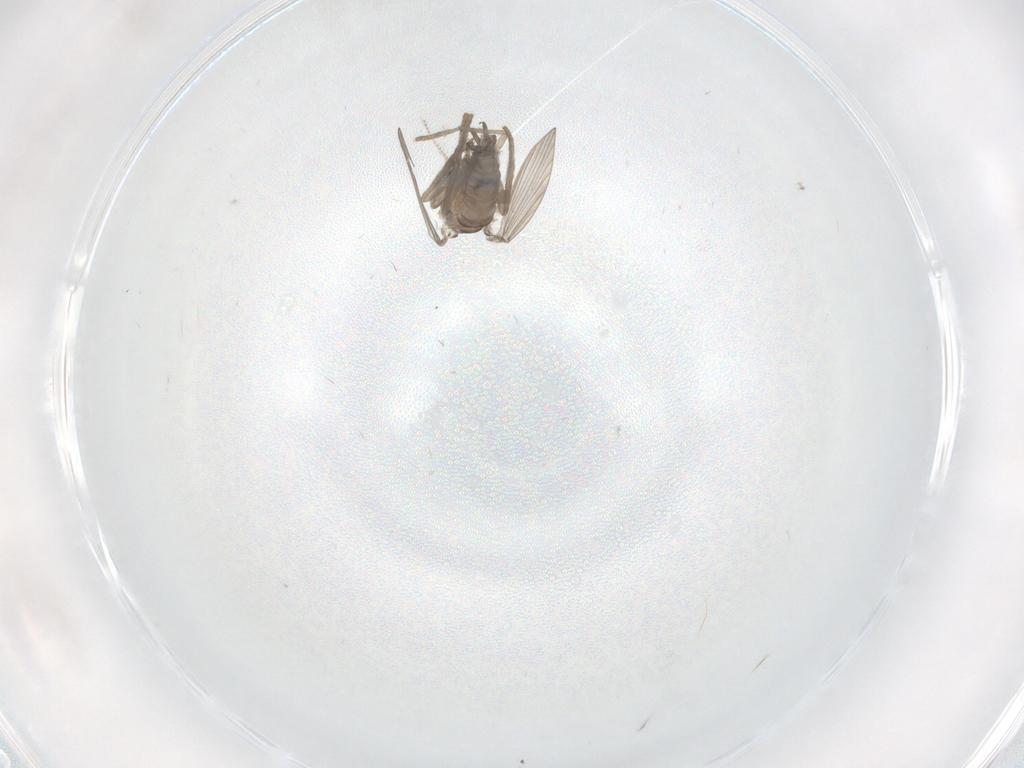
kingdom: Animalia
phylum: Arthropoda
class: Insecta
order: Diptera
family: Psychodidae
